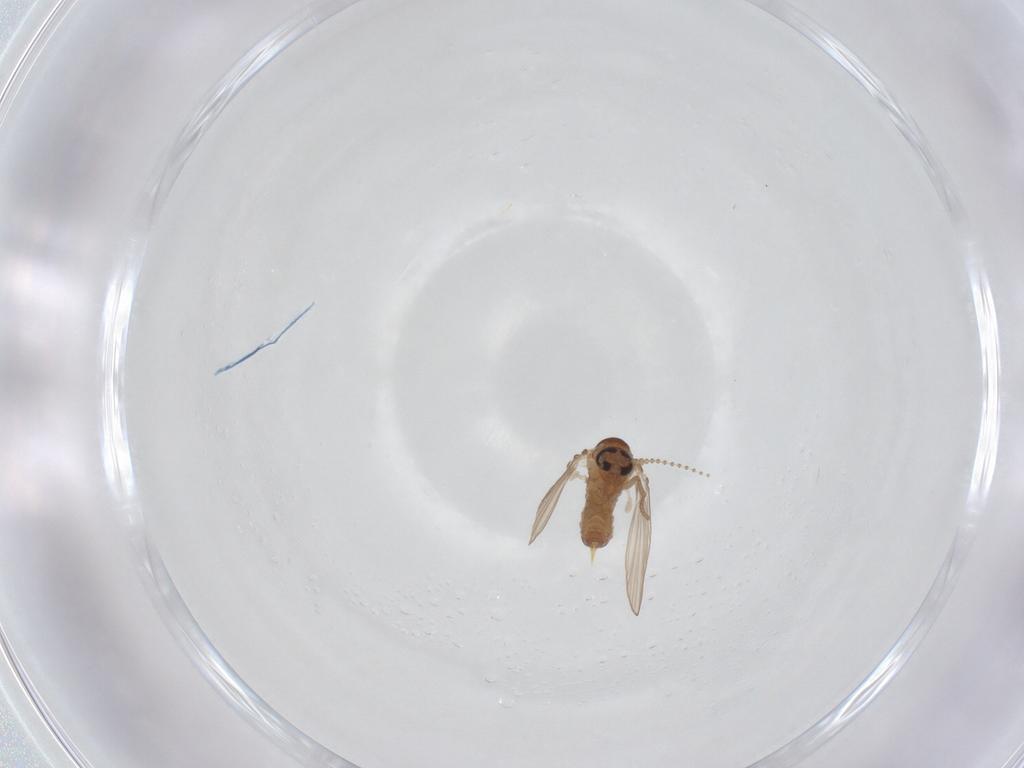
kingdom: Animalia
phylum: Arthropoda
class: Insecta
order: Diptera
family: Psychodidae
